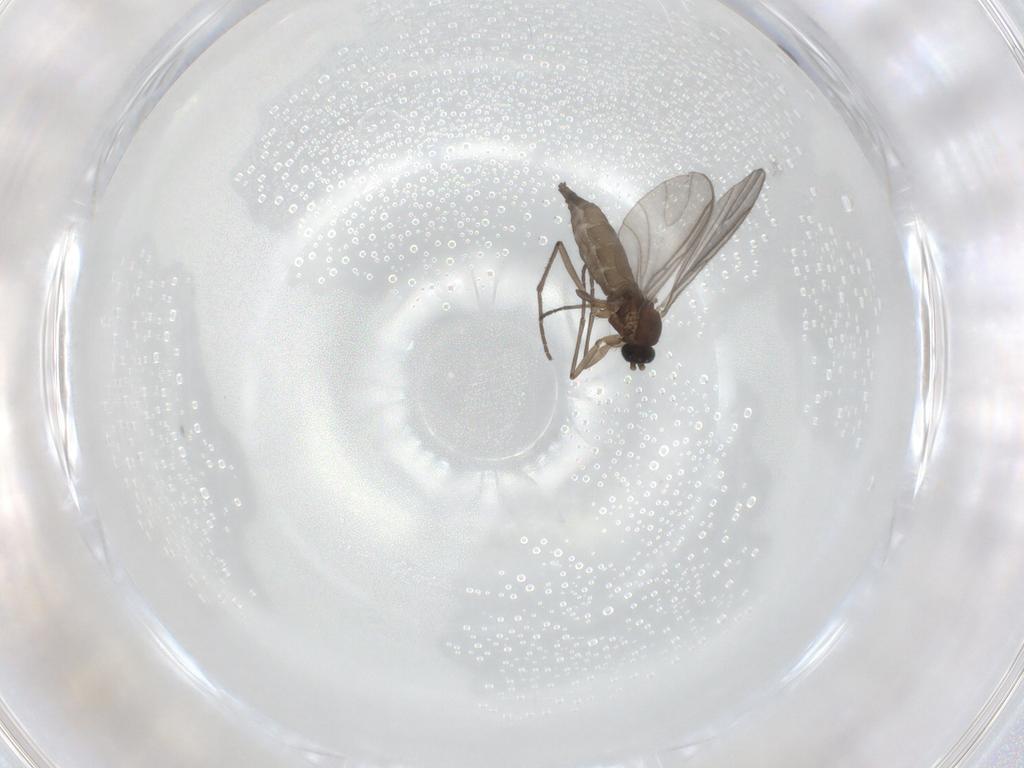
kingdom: Animalia
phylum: Arthropoda
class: Insecta
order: Diptera
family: Sciaridae
